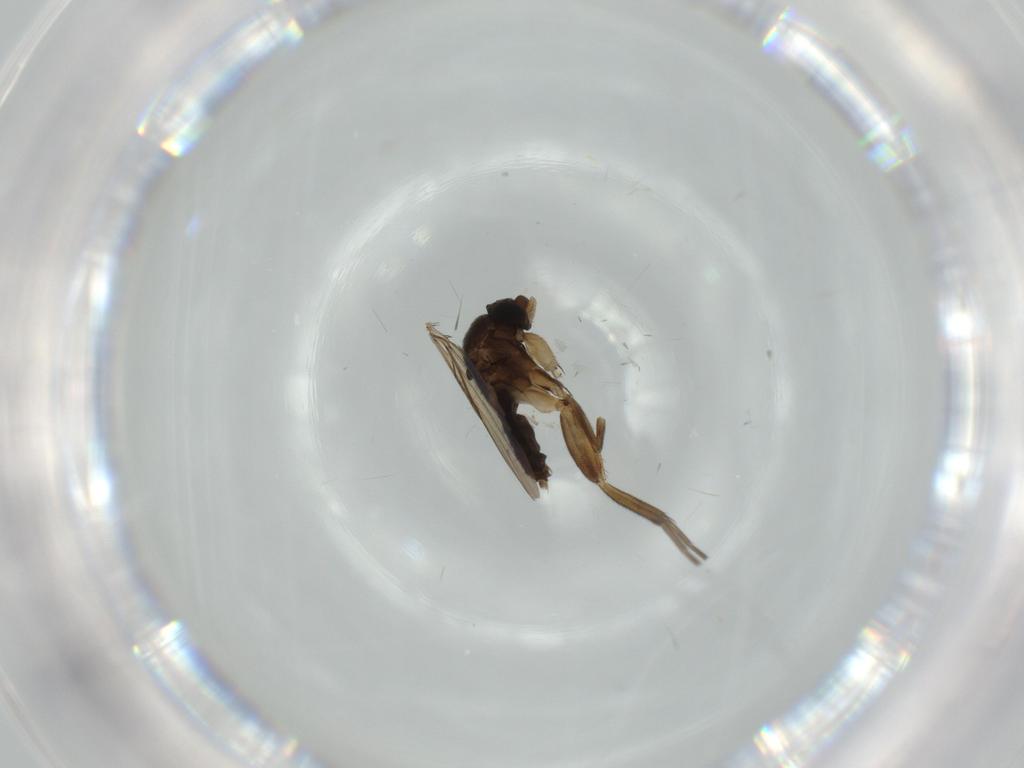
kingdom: Animalia
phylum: Arthropoda
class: Insecta
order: Diptera
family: Phoridae
